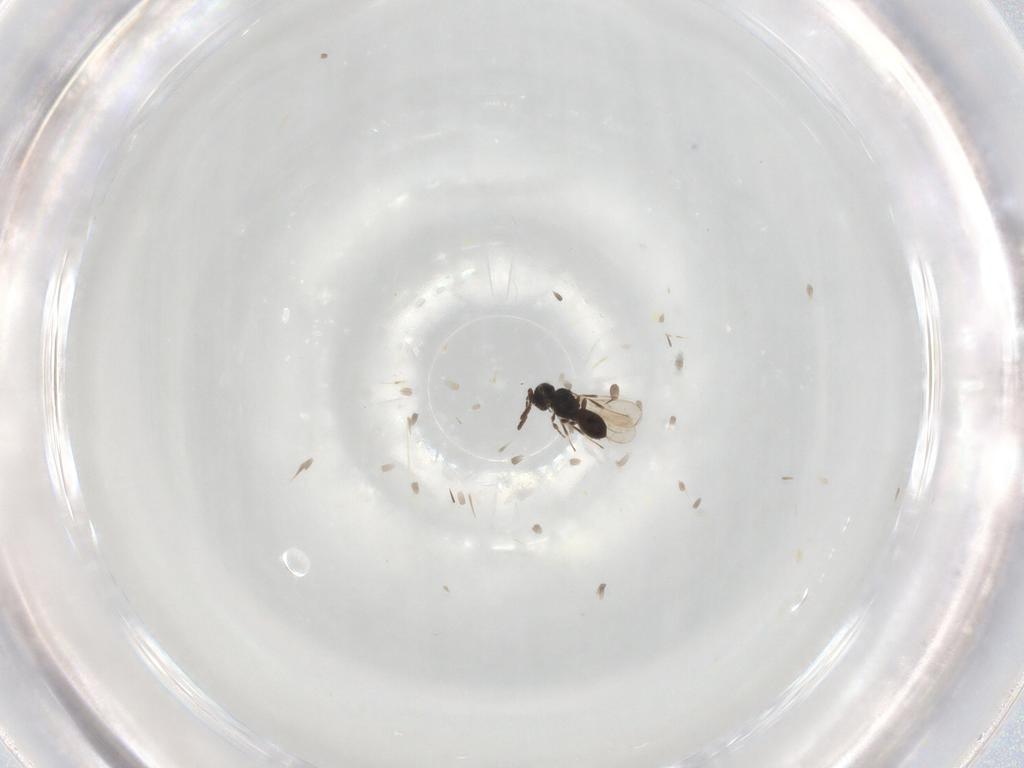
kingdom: Animalia
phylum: Arthropoda
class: Insecta
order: Hymenoptera
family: Scelionidae
